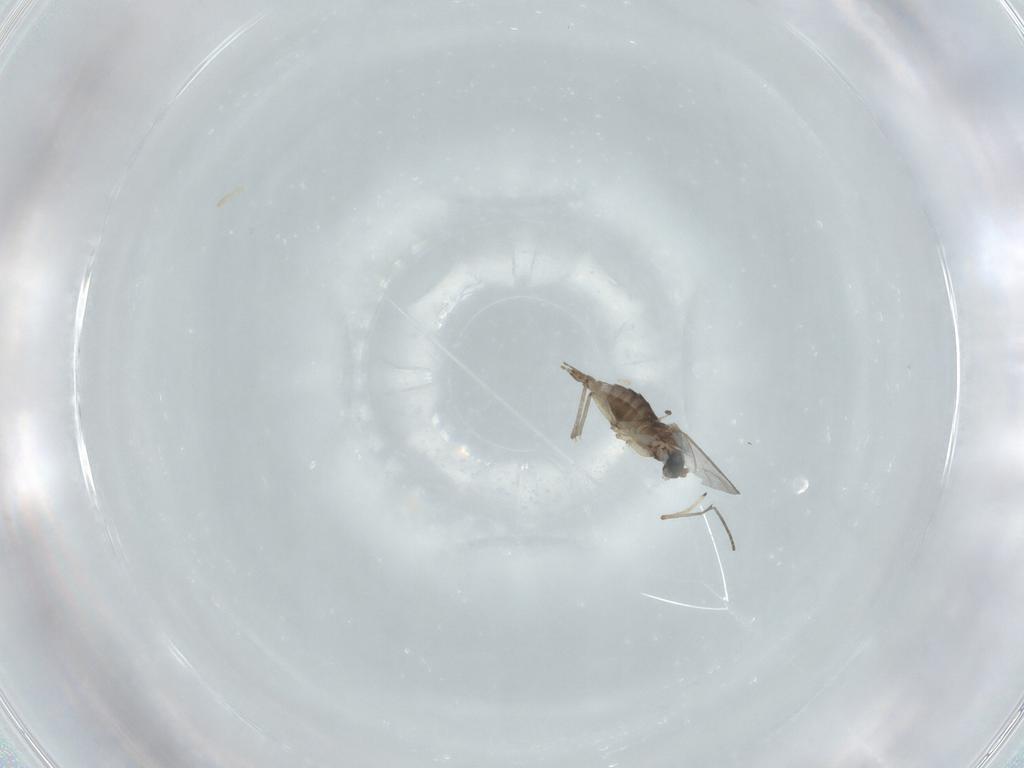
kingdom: Animalia
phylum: Arthropoda
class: Insecta
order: Diptera
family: Sciaridae
